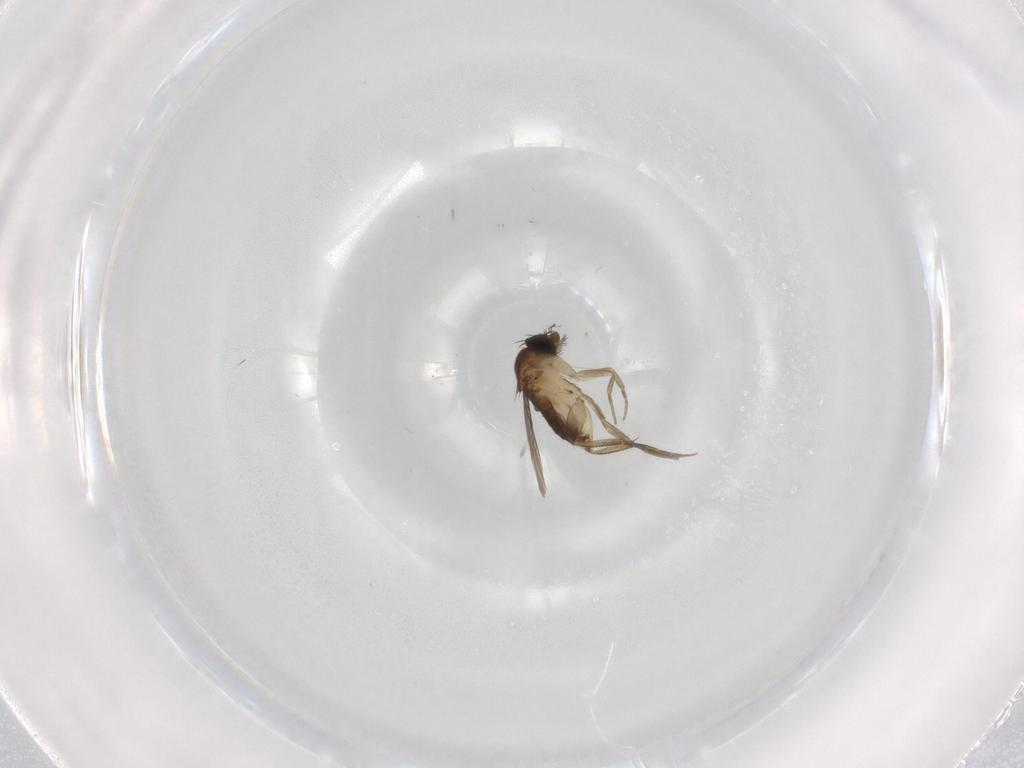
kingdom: Animalia
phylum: Arthropoda
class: Insecta
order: Diptera
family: Phoridae
